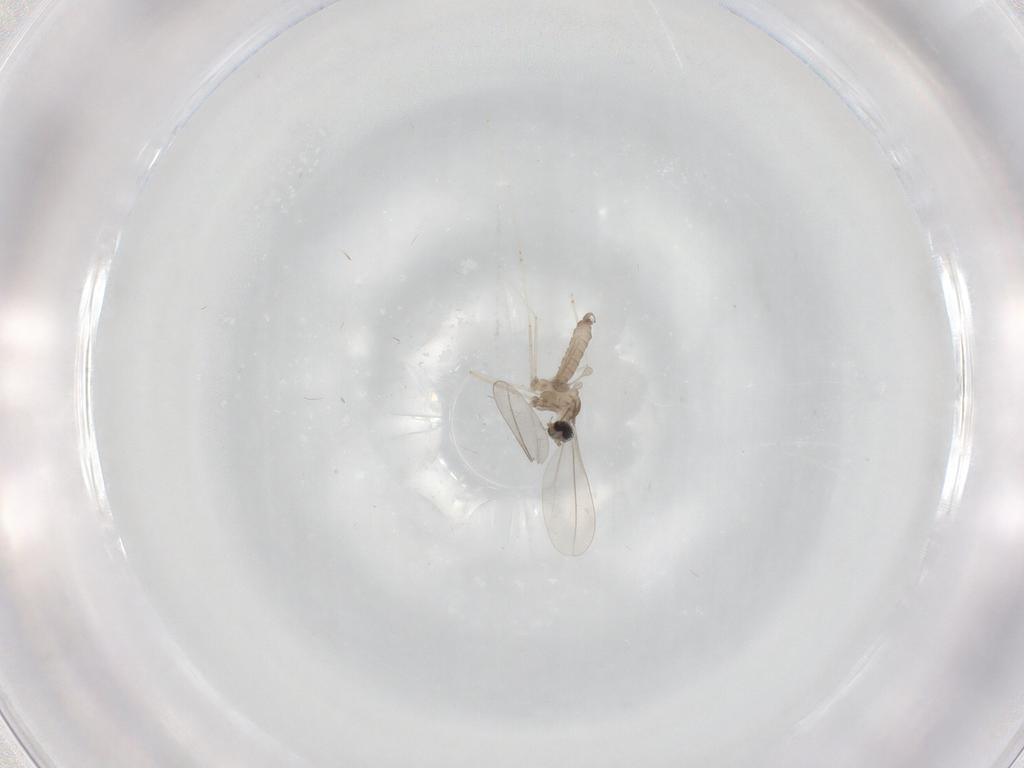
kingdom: Animalia
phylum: Arthropoda
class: Insecta
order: Diptera
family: Cecidomyiidae
